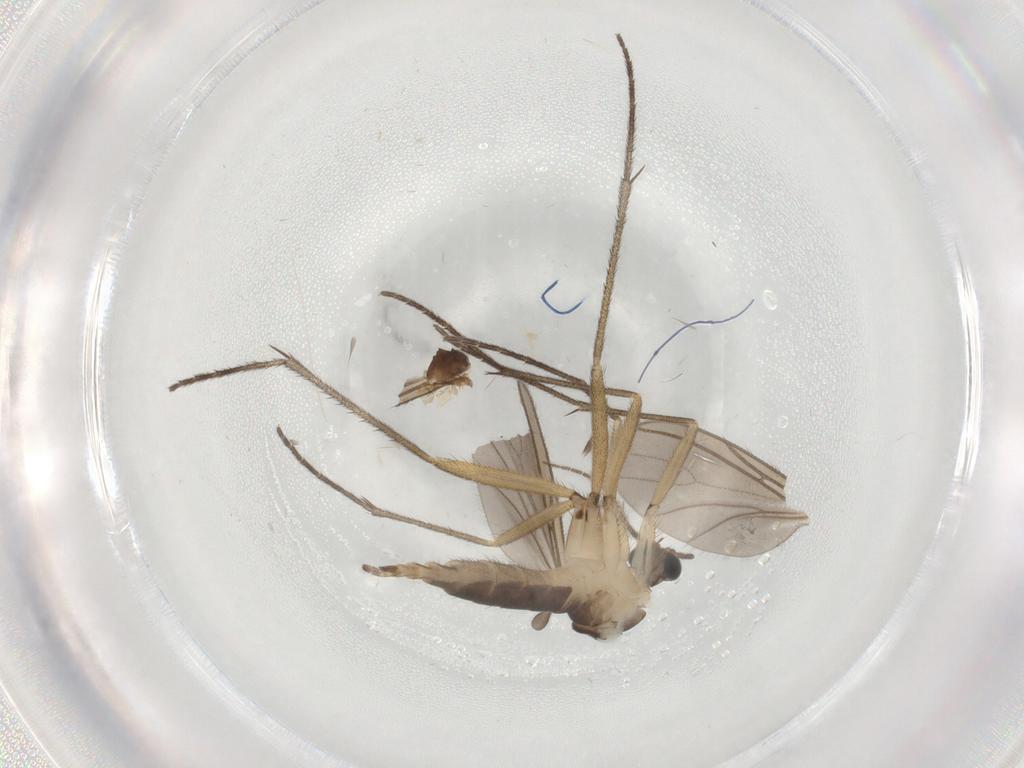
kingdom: Animalia
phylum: Arthropoda
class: Insecta
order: Diptera
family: Sciaridae
